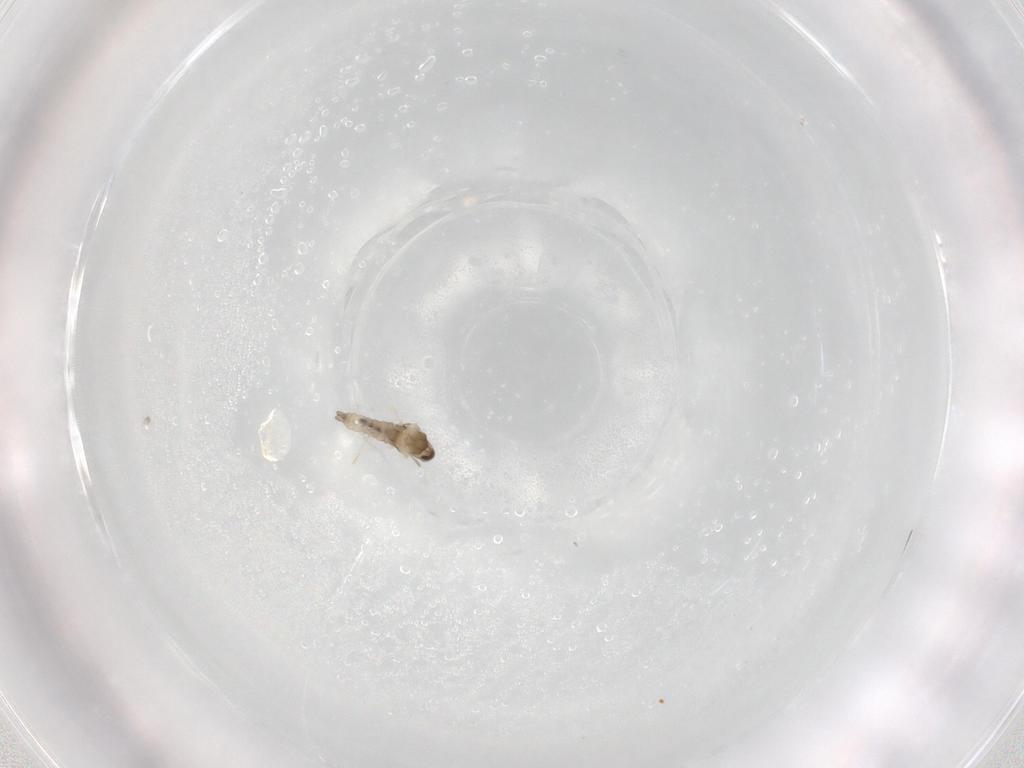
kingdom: Animalia
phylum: Arthropoda
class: Insecta
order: Diptera
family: Cecidomyiidae
